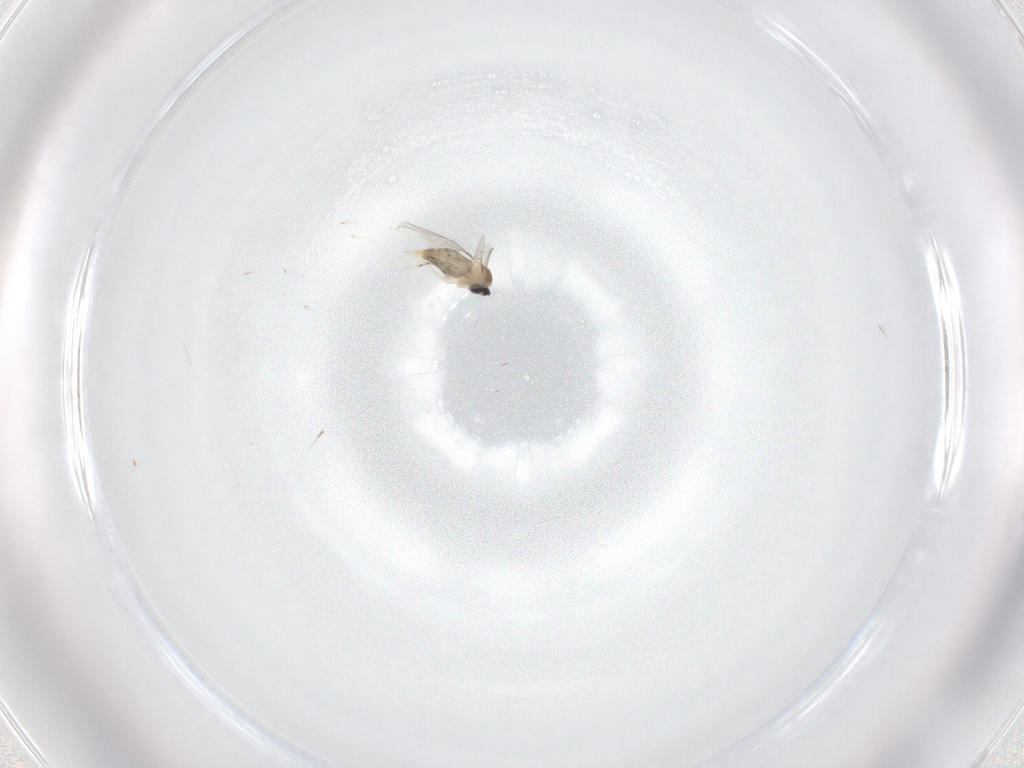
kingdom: Animalia
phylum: Arthropoda
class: Insecta
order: Diptera
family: Cecidomyiidae
